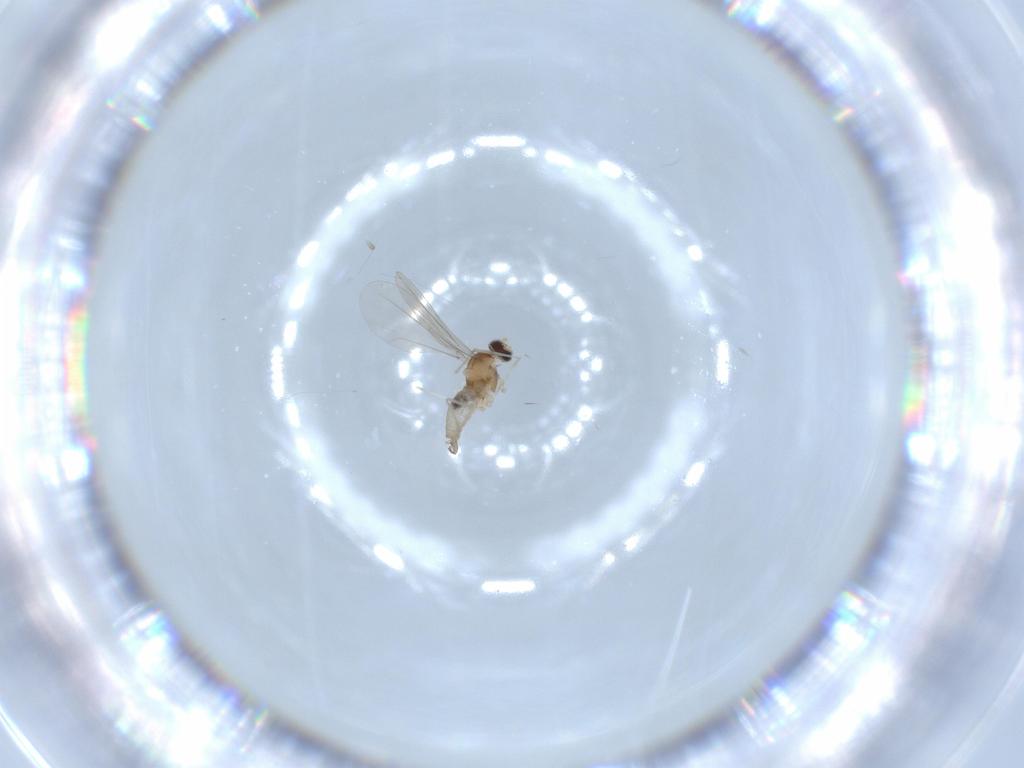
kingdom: Animalia
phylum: Arthropoda
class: Insecta
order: Diptera
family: Cecidomyiidae
